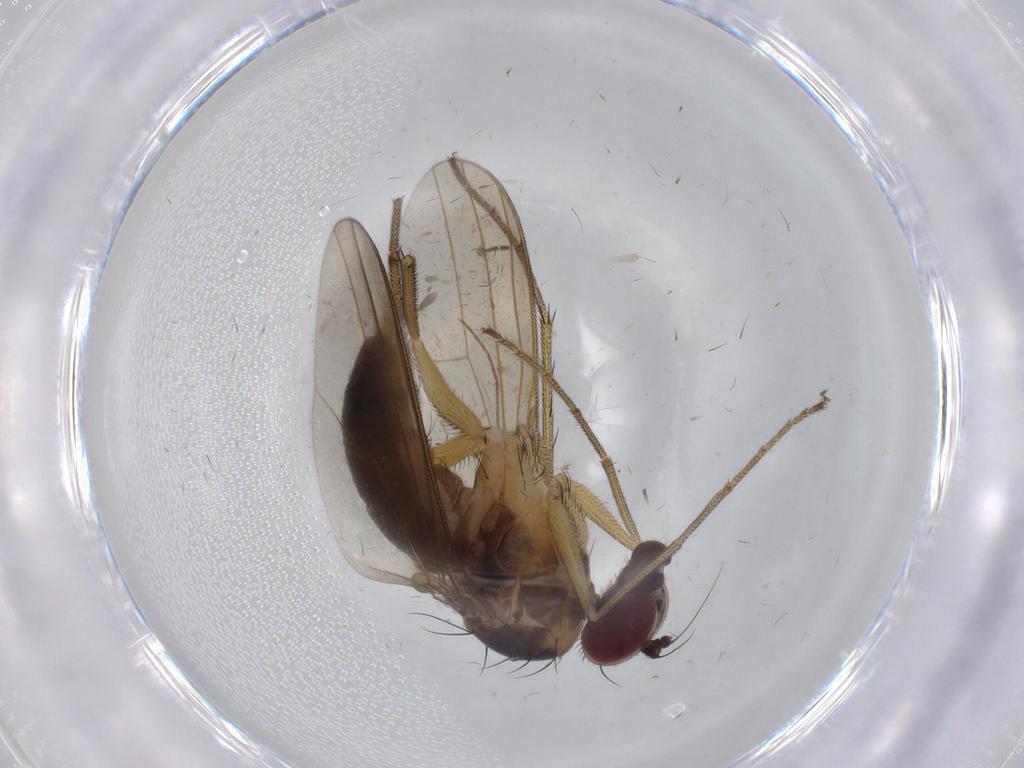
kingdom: Animalia
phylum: Arthropoda
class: Insecta
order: Diptera
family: Dolichopodidae
